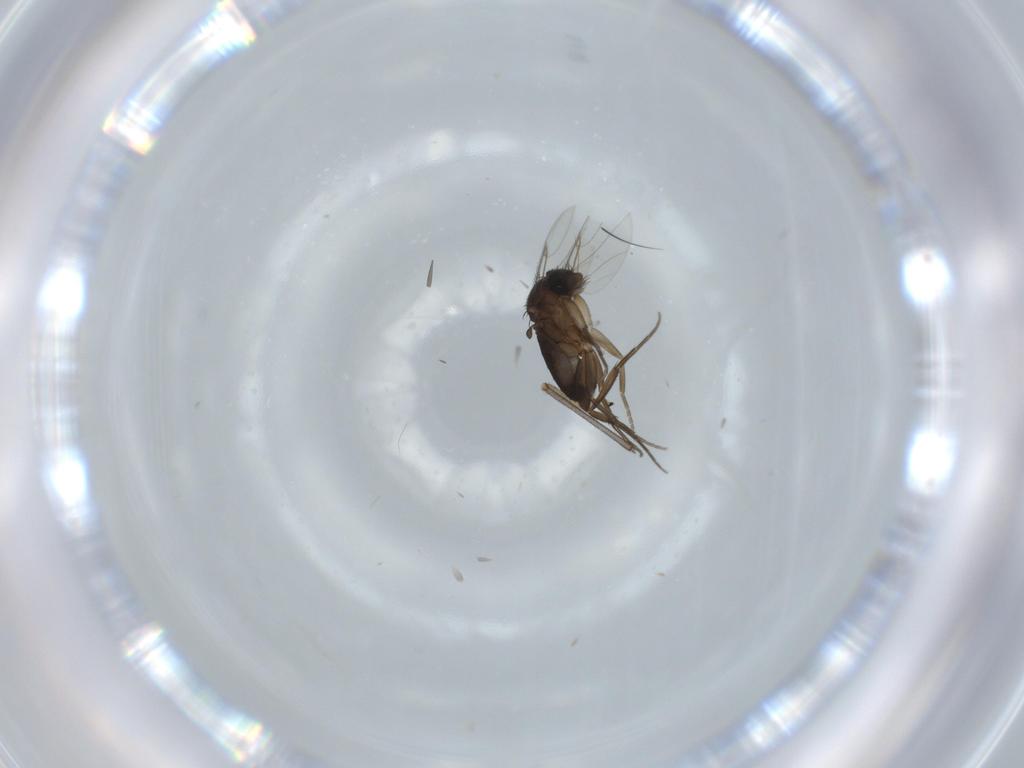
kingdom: Animalia
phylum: Arthropoda
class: Insecta
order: Diptera
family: Phoridae
